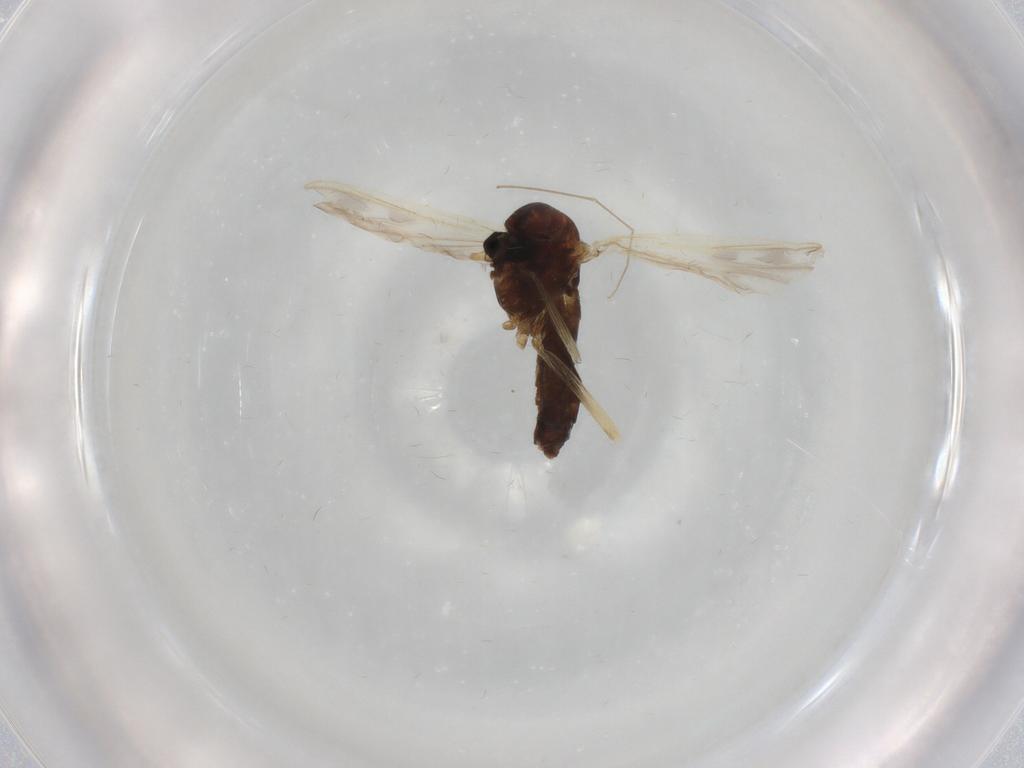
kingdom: Animalia
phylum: Arthropoda
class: Insecta
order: Diptera
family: Chironomidae
